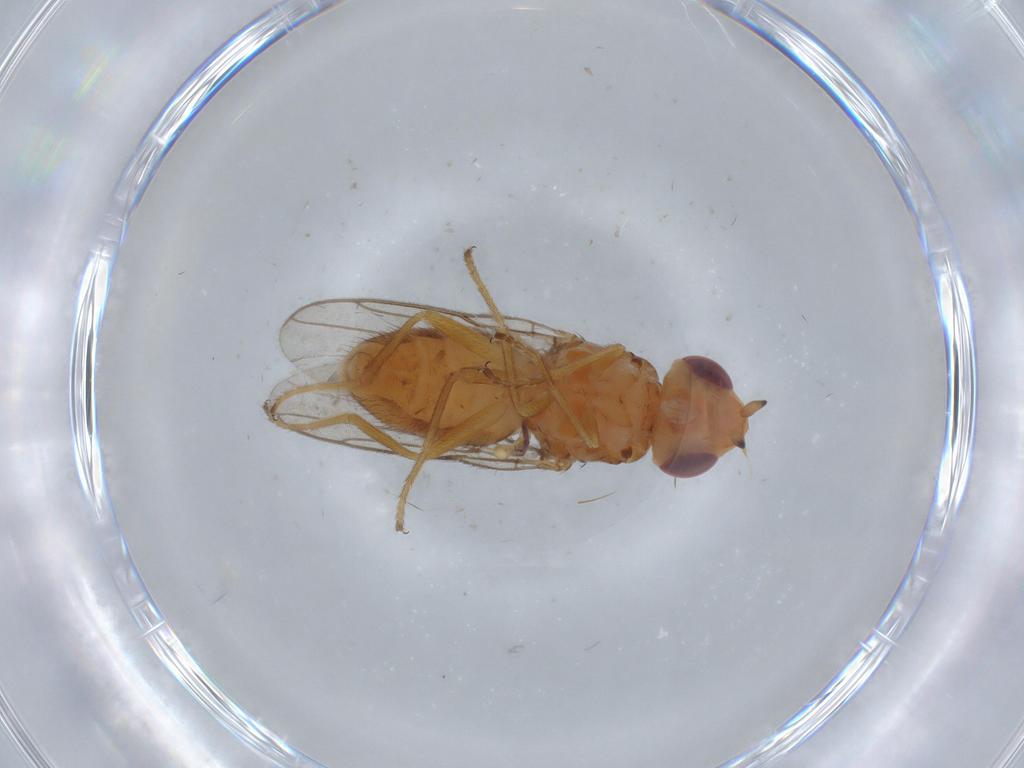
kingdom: Animalia
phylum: Arthropoda
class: Insecta
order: Diptera
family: Chloropidae
